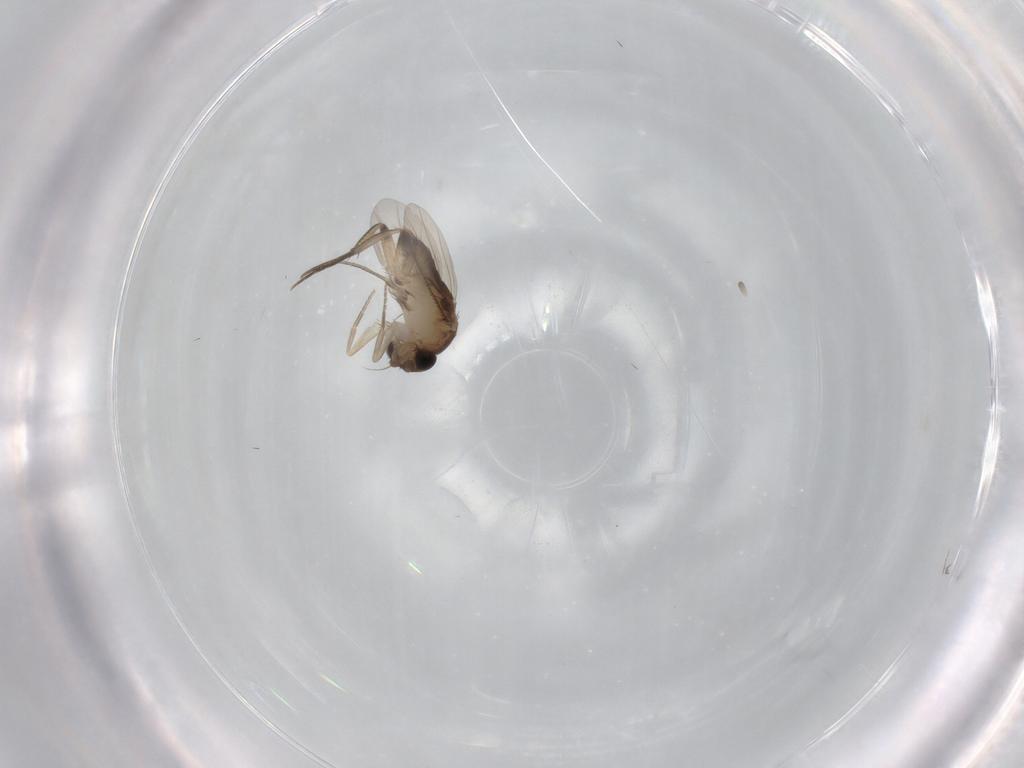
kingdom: Animalia
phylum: Arthropoda
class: Insecta
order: Diptera
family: Phoridae
